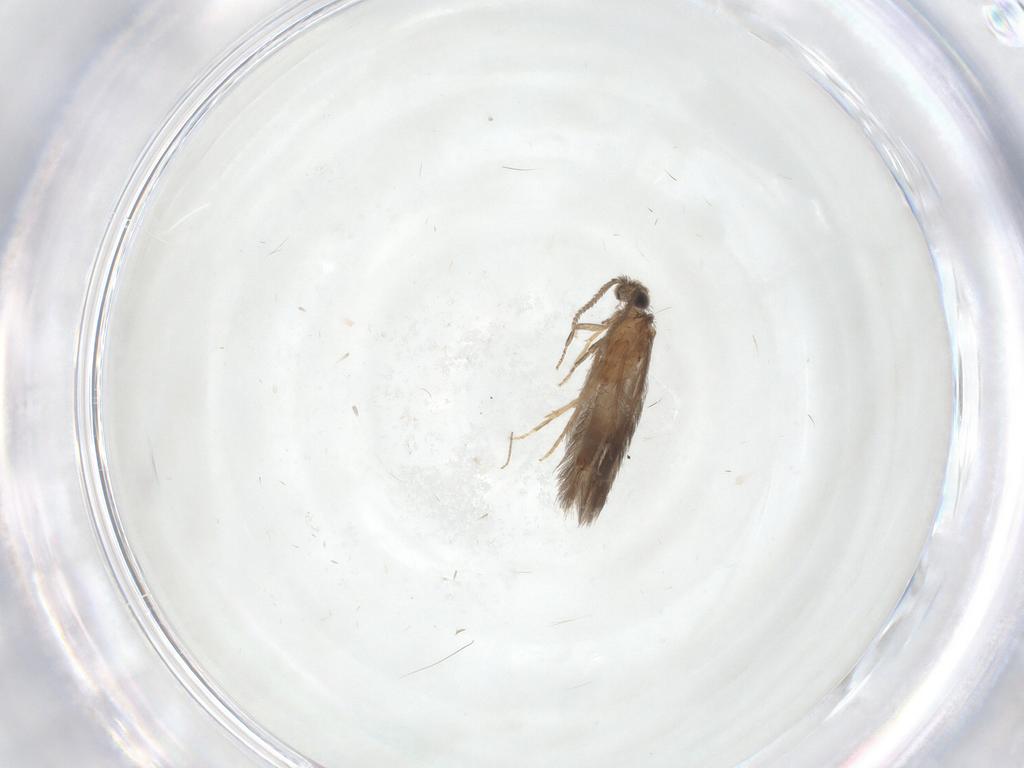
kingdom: Animalia
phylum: Arthropoda
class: Insecta
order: Trichoptera
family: Hydroptilidae
